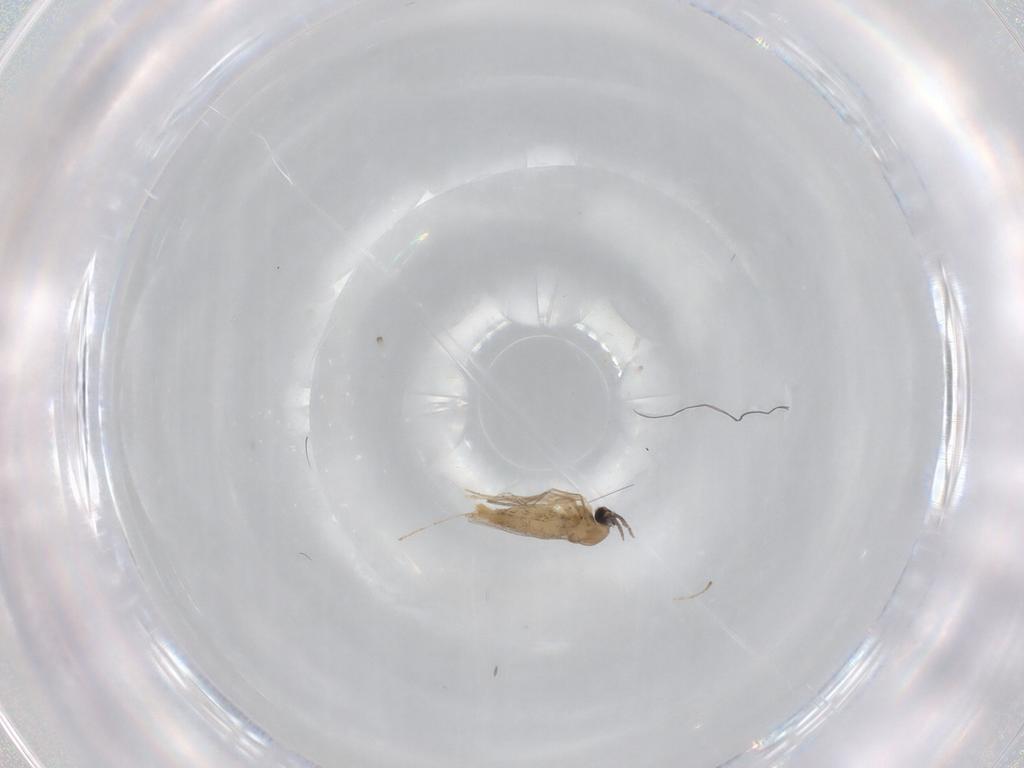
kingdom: Animalia
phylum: Arthropoda
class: Insecta
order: Diptera
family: Cecidomyiidae
